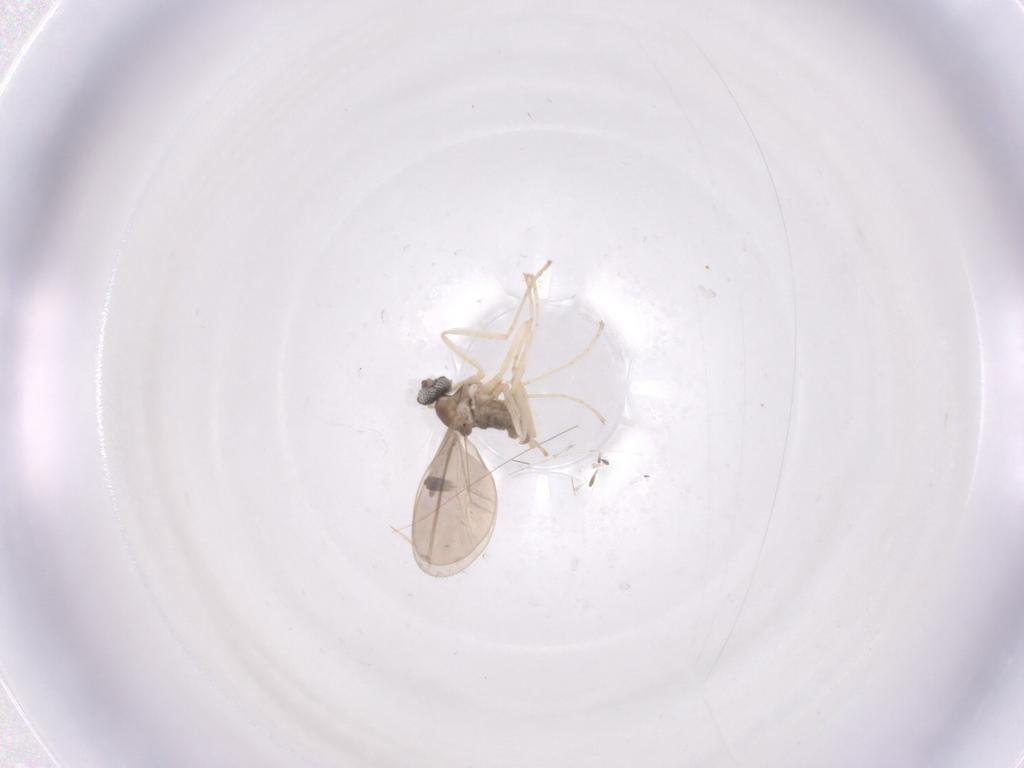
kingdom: Animalia
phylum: Arthropoda
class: Insecta
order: Diptera
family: Cecidomyiidae
